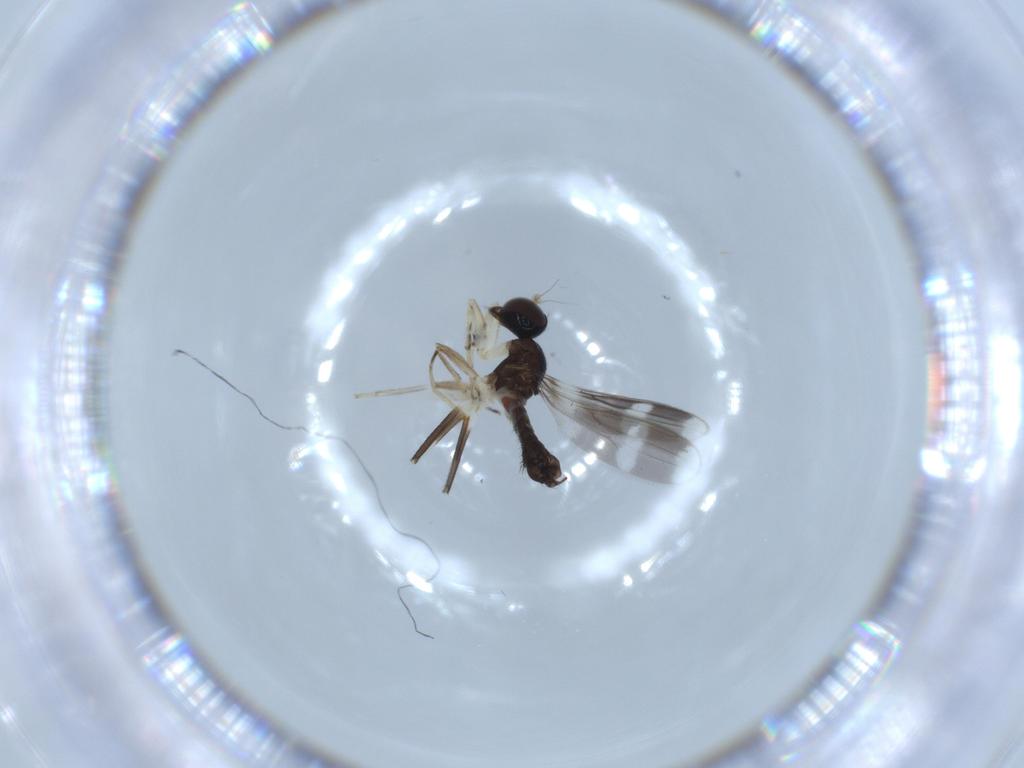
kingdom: Animalia
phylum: Arthropoda
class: Insecta
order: Diptera
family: Hybotidae
